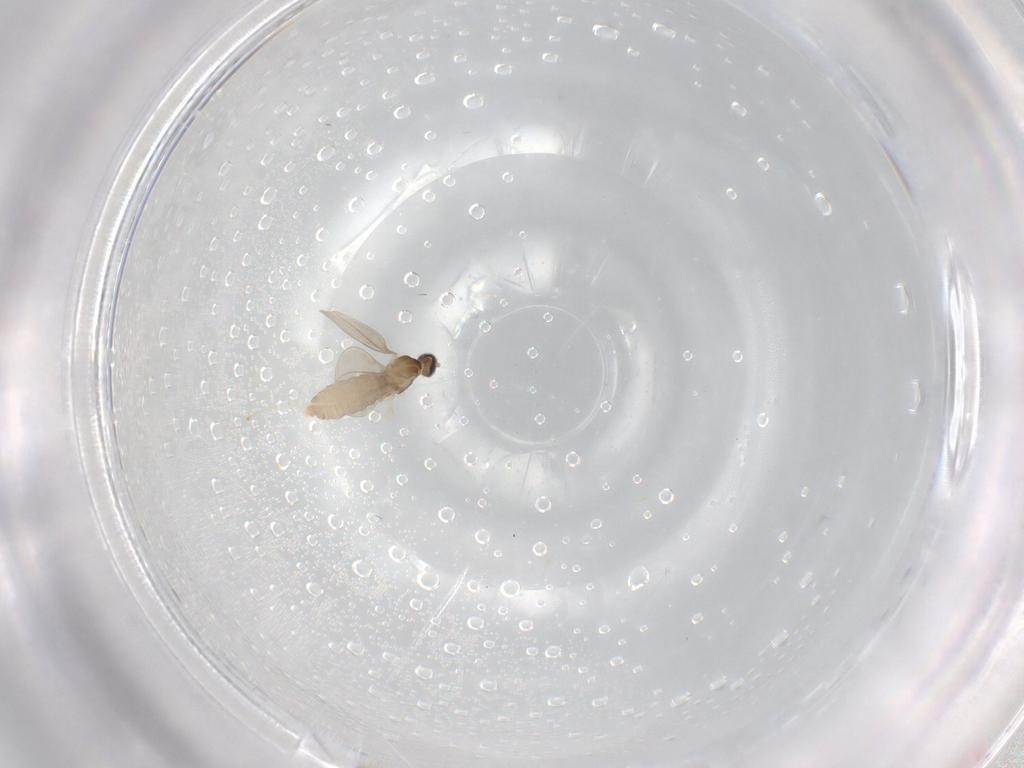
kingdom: Animalia
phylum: Arthropoda
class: Insecta
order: Diptera
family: Cecidomyiidae
